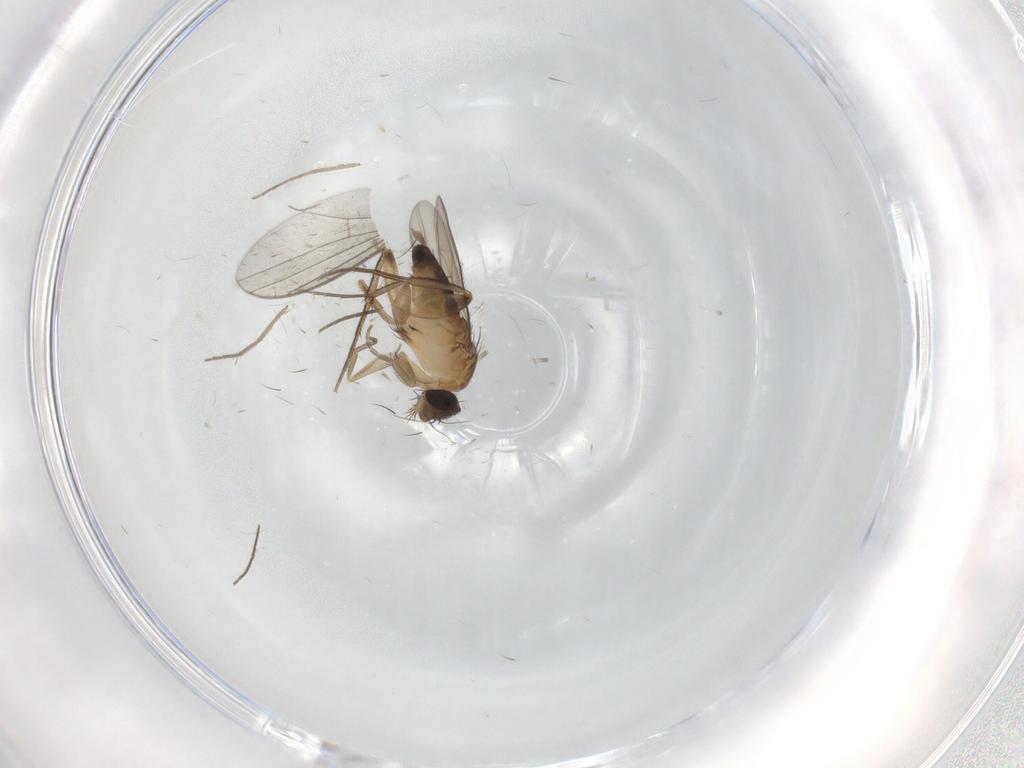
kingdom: Animalia
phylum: Arthropoda
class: Insecta
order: Diptera
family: Phoridae
